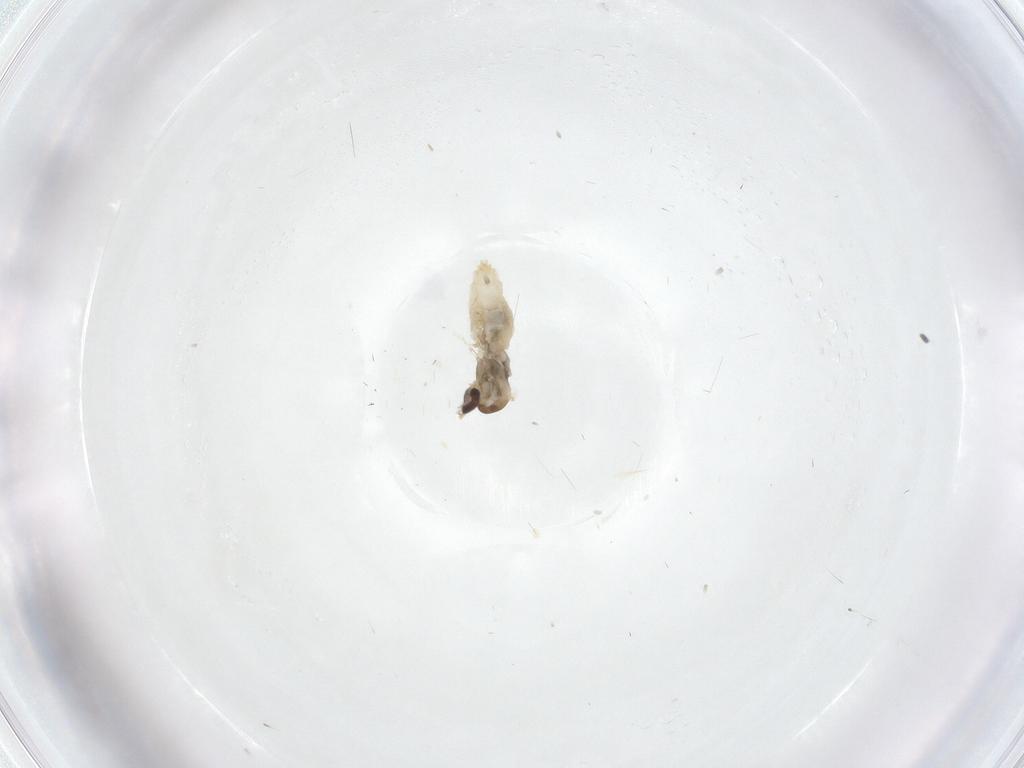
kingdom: Animalia
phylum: Arthropoda
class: Insecta
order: Diptera
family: Cecidomyiidae
